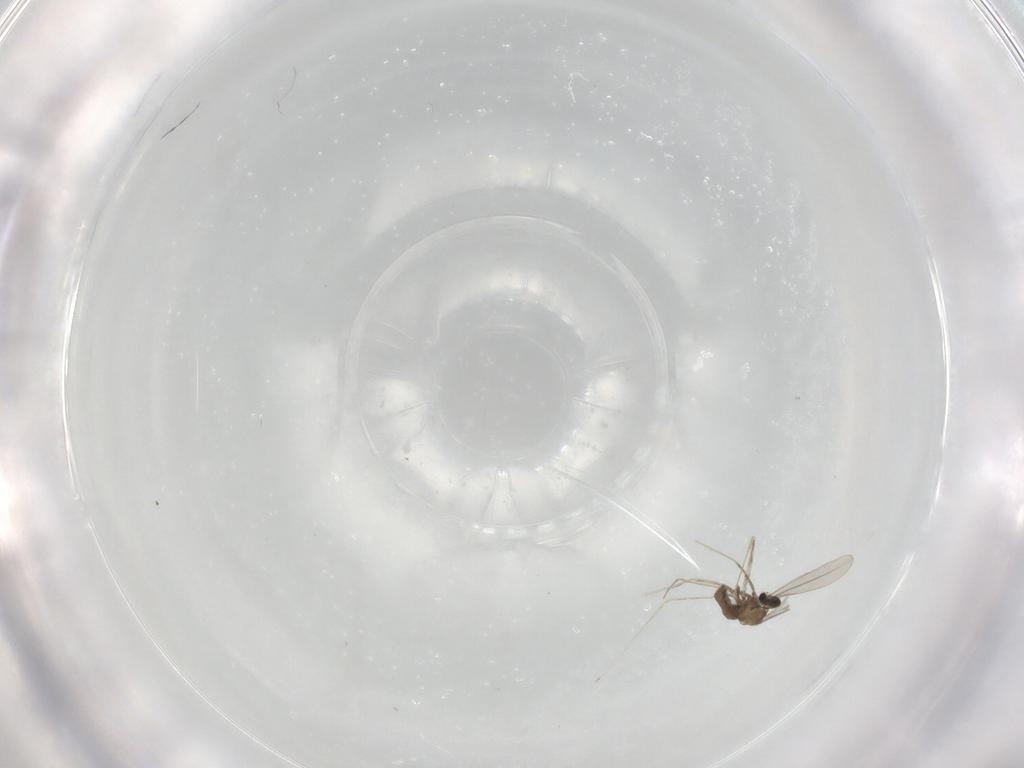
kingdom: Animalia
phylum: Arthropoda
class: Insecta
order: Diptera
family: Cecidomyiidae
